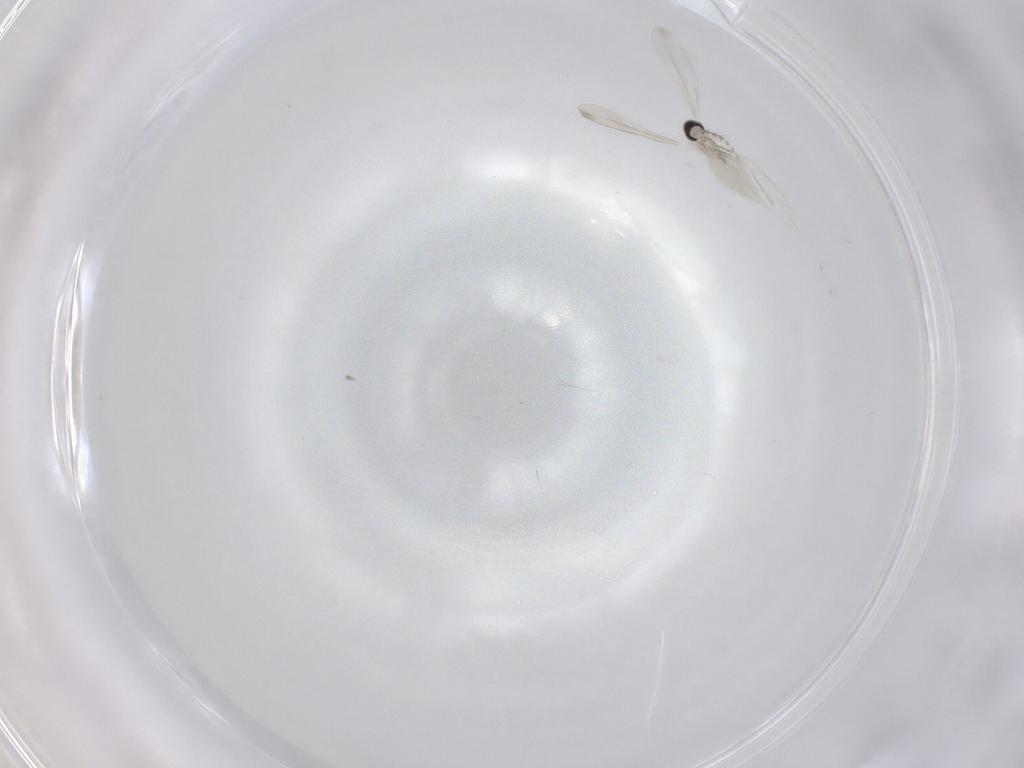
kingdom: Animalia
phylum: Arthropoda
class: Insecta
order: Diptera
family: Cecidomyiidae
